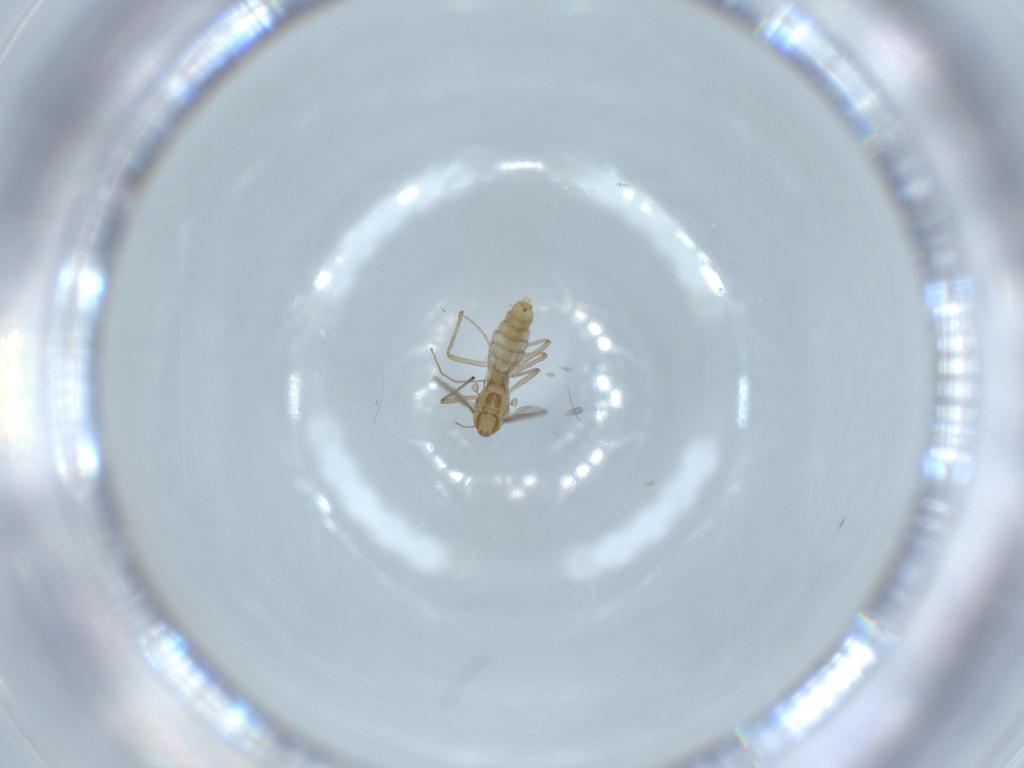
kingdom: Animalia
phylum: Arthropoda
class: Insecta
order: Diptera
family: Chironomidae
